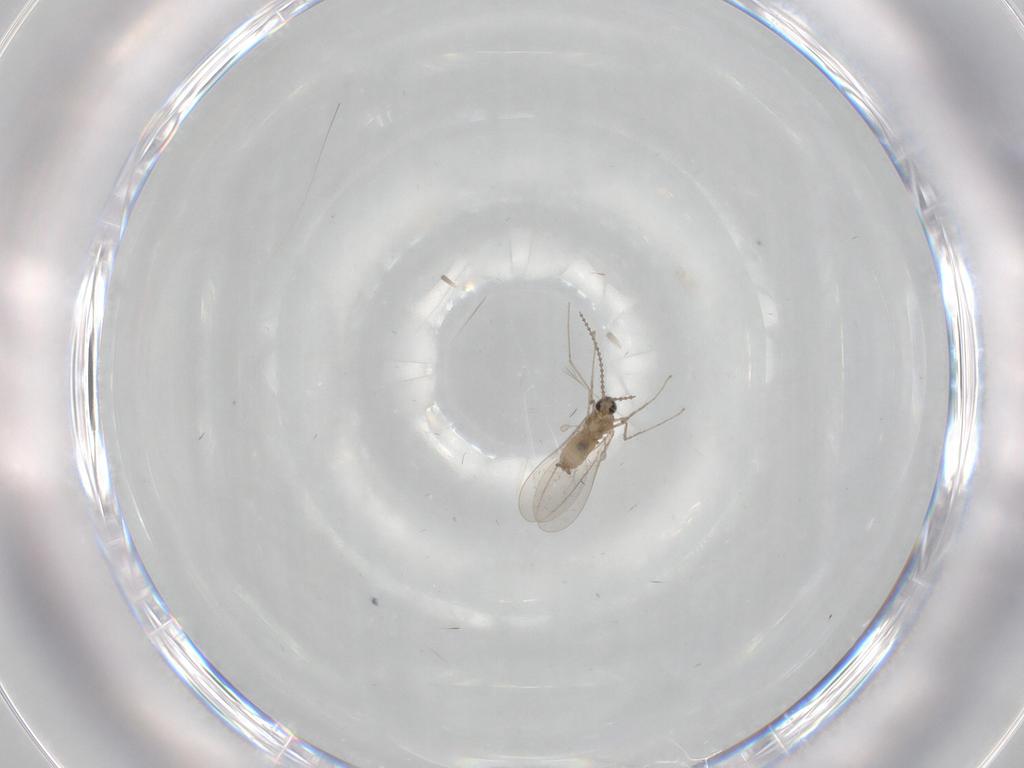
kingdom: Animalia
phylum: Arthropoda
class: Insecta
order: Diptera
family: Cecidomyiidae
